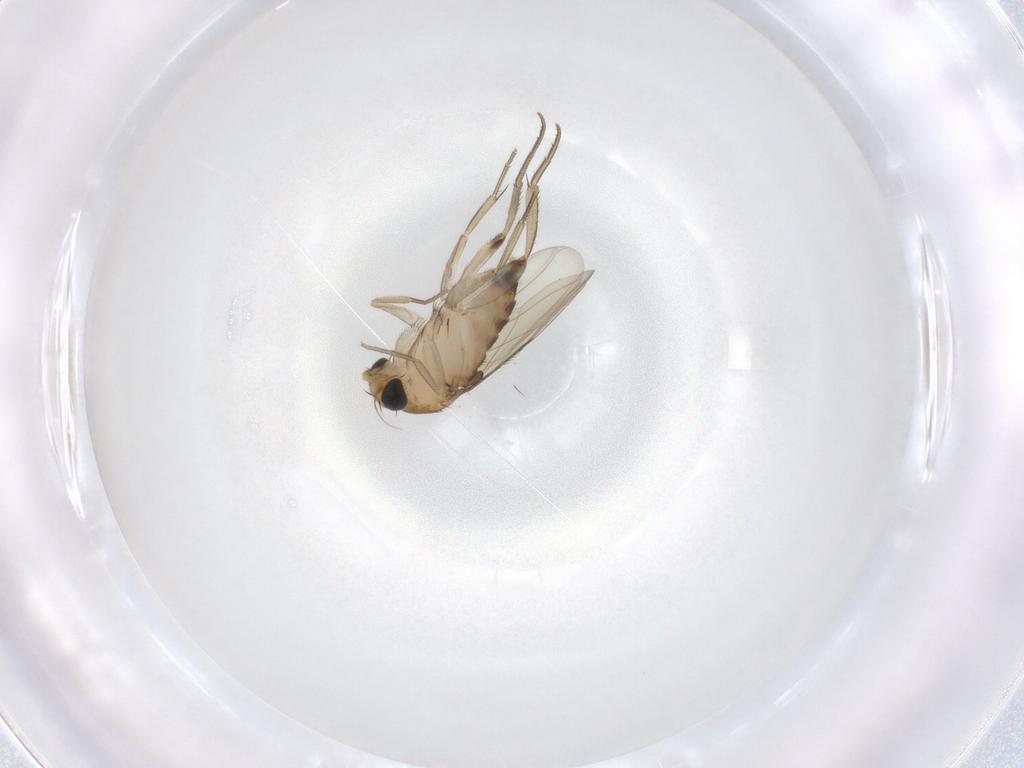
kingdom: Animalia
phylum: Arthropoda
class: Insecta
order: Diptera
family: Phoridae
